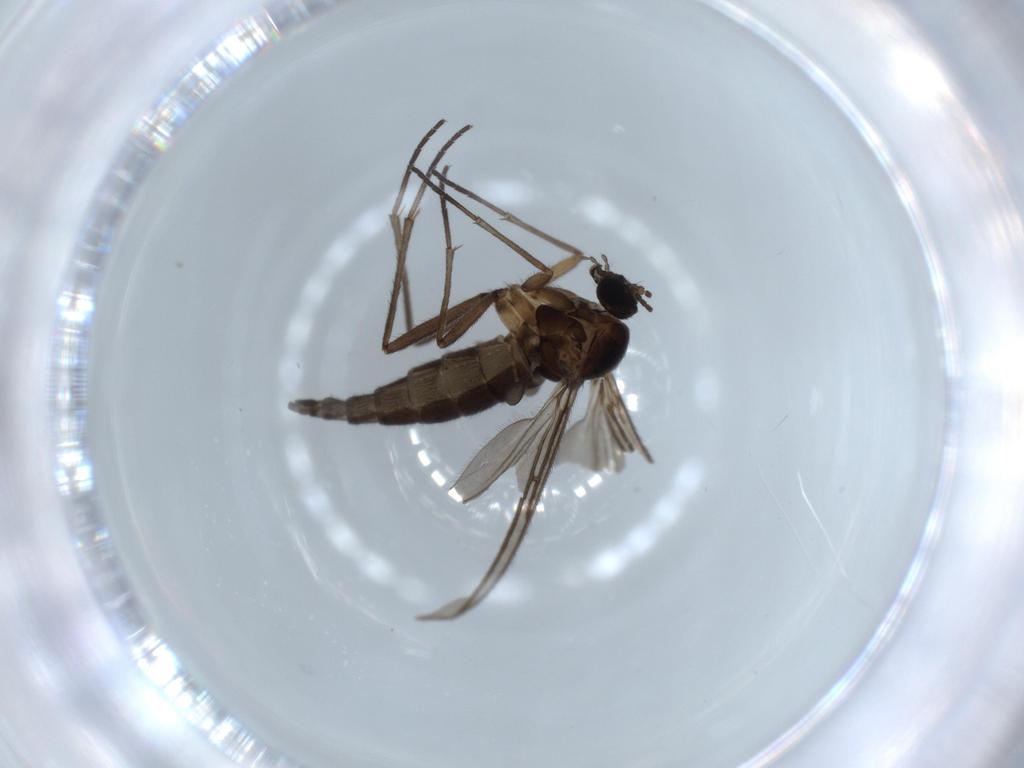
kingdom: Animalia
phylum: Arthropoda
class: Insecta
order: Diptera
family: Sciaridae
